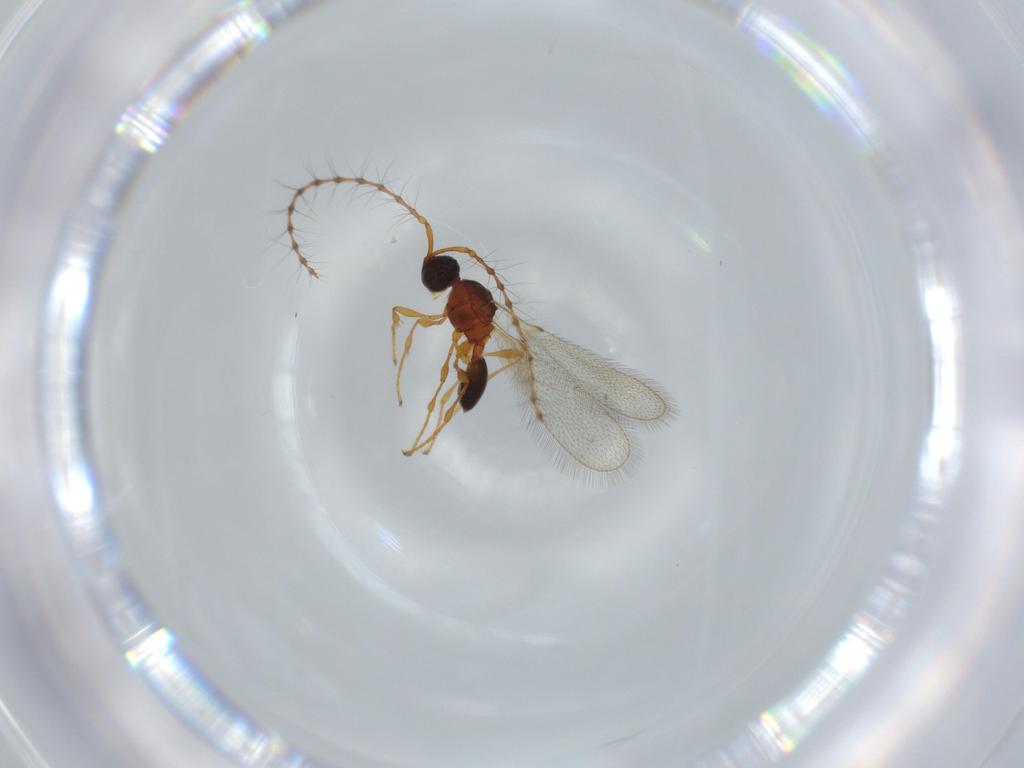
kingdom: Animalia
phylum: Arthropoda
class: Insecta
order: Hymenoptera
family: Diapriidae
